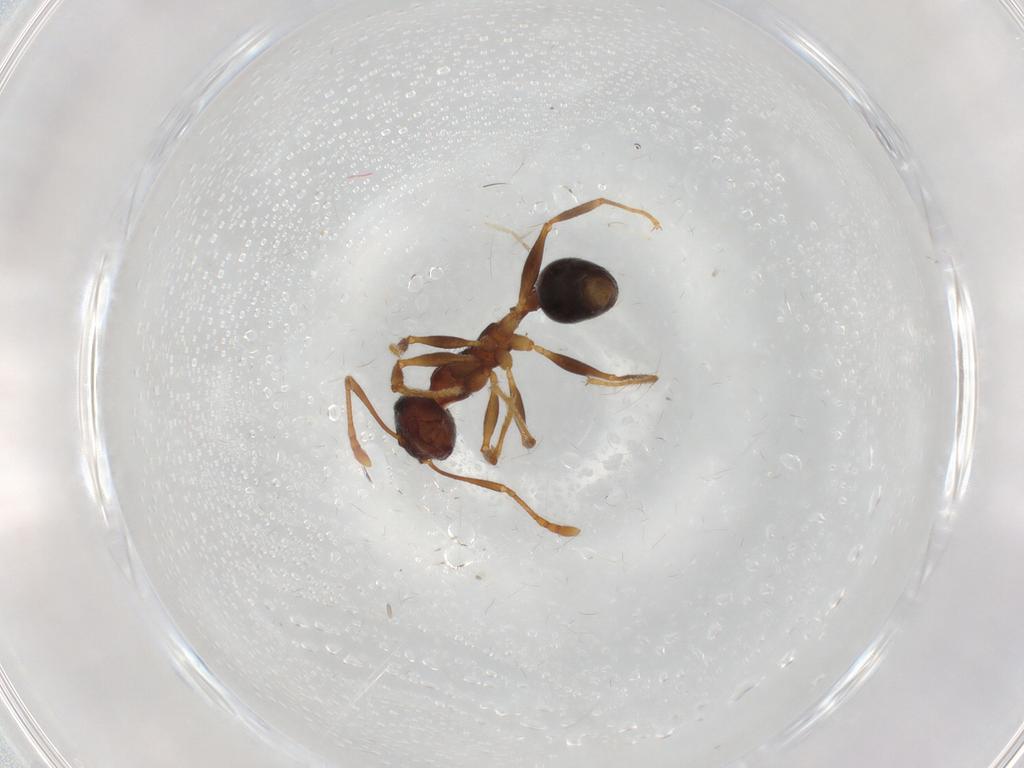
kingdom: Animalia
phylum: Arthropoda
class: Insecta
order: Hymenoptera
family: Formicidae
